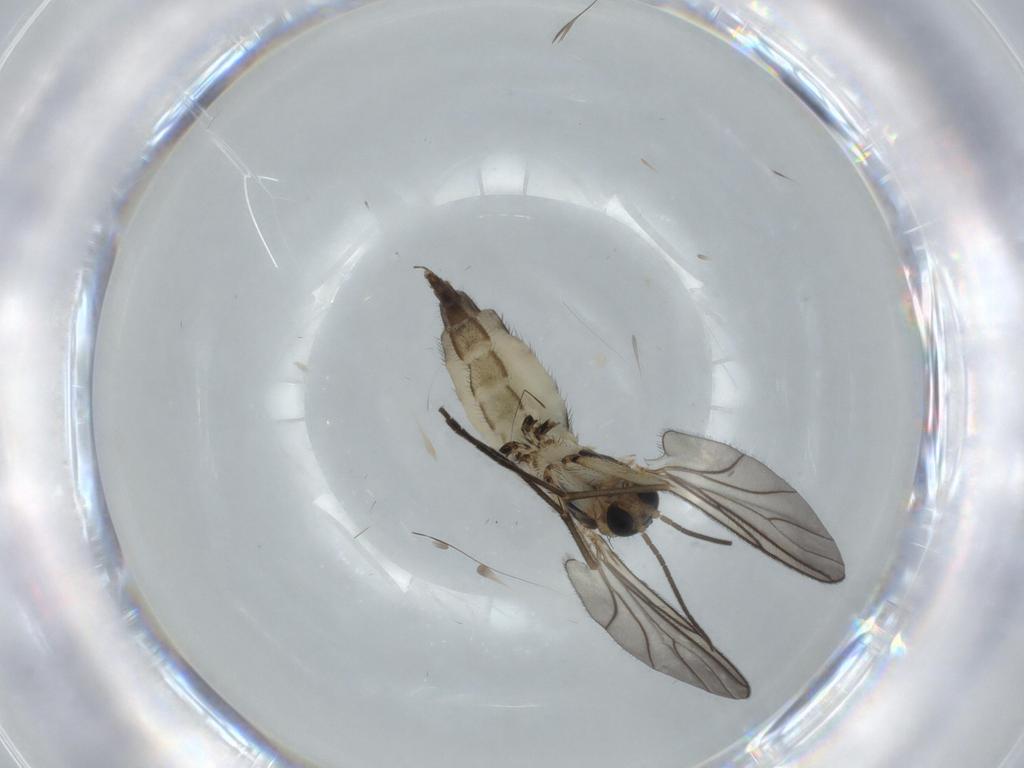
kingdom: Animalia
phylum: Arthropoda
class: Insecta
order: Diptera
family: Sciaridae
